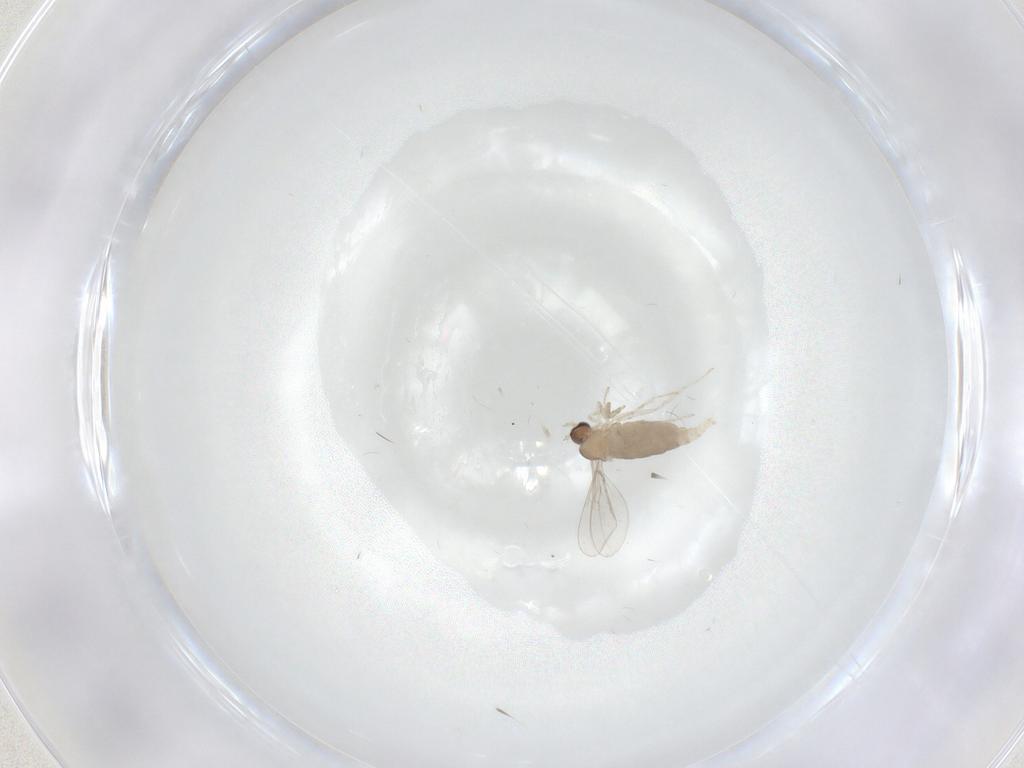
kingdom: Animalia
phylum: Arthropoda
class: Insecta
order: Diptera
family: Cecidomyiidae
